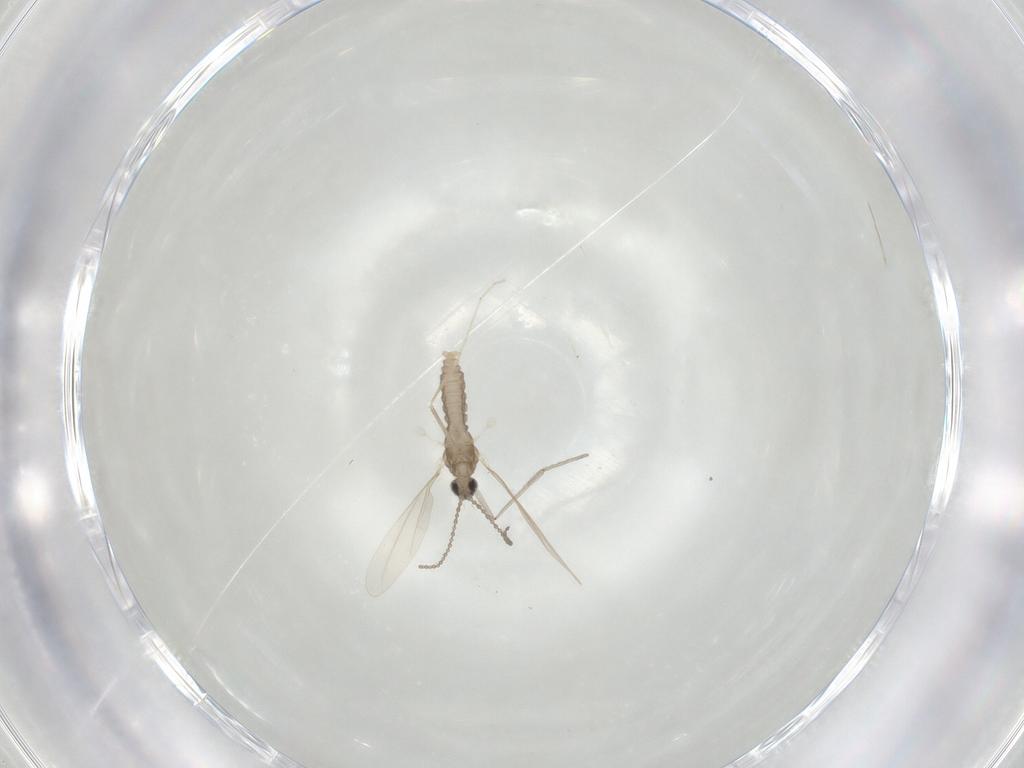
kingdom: Animalia
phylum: Arthropoda
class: Insecta
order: Diptera
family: Cecidomyiidae
